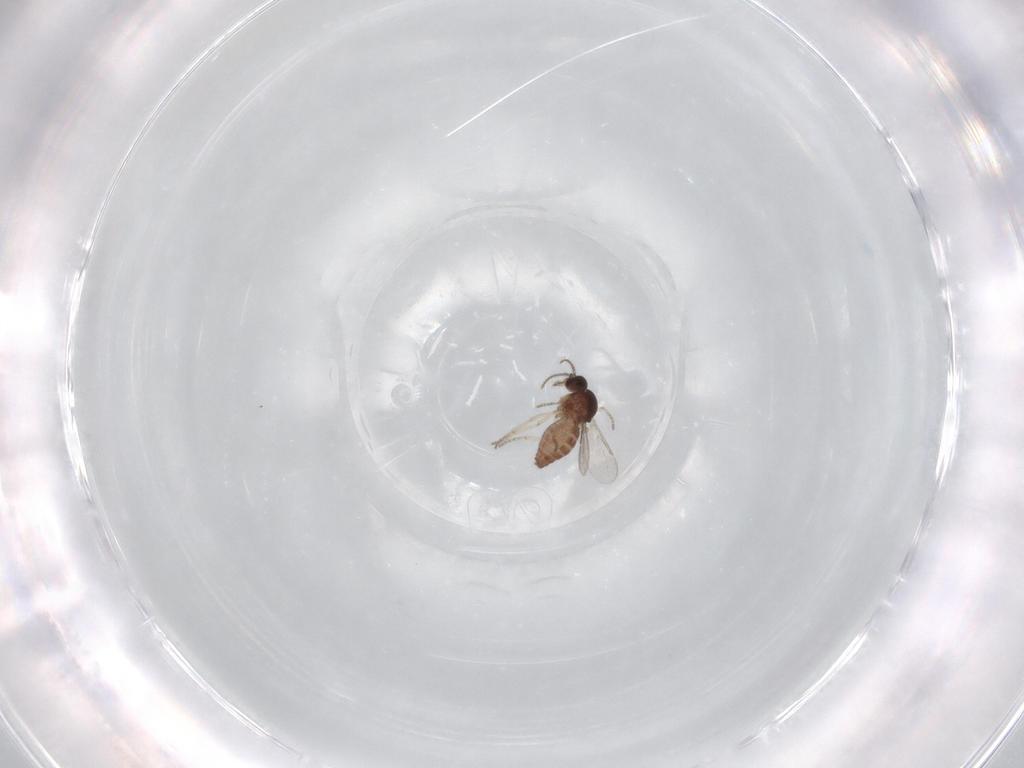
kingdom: Animalia
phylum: Arthropoda
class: Insecta
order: Diptera
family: Ceratopogonidae
